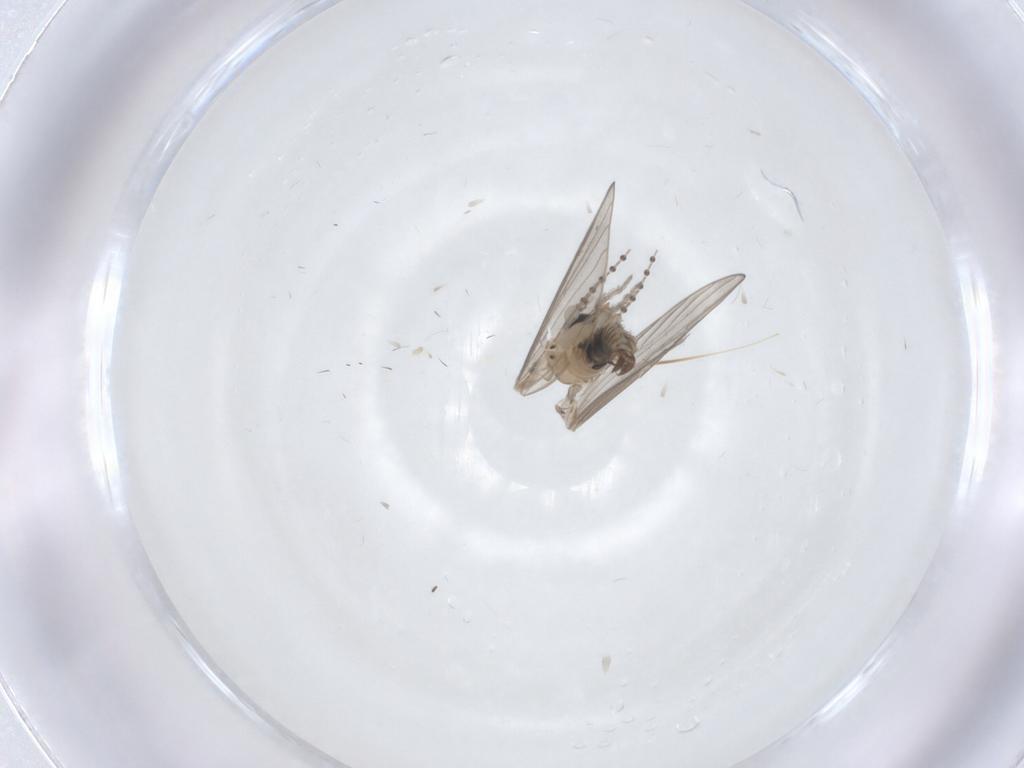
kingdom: Animalia
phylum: Arthropoda
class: Insecta
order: Diptera
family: Psychodidae
